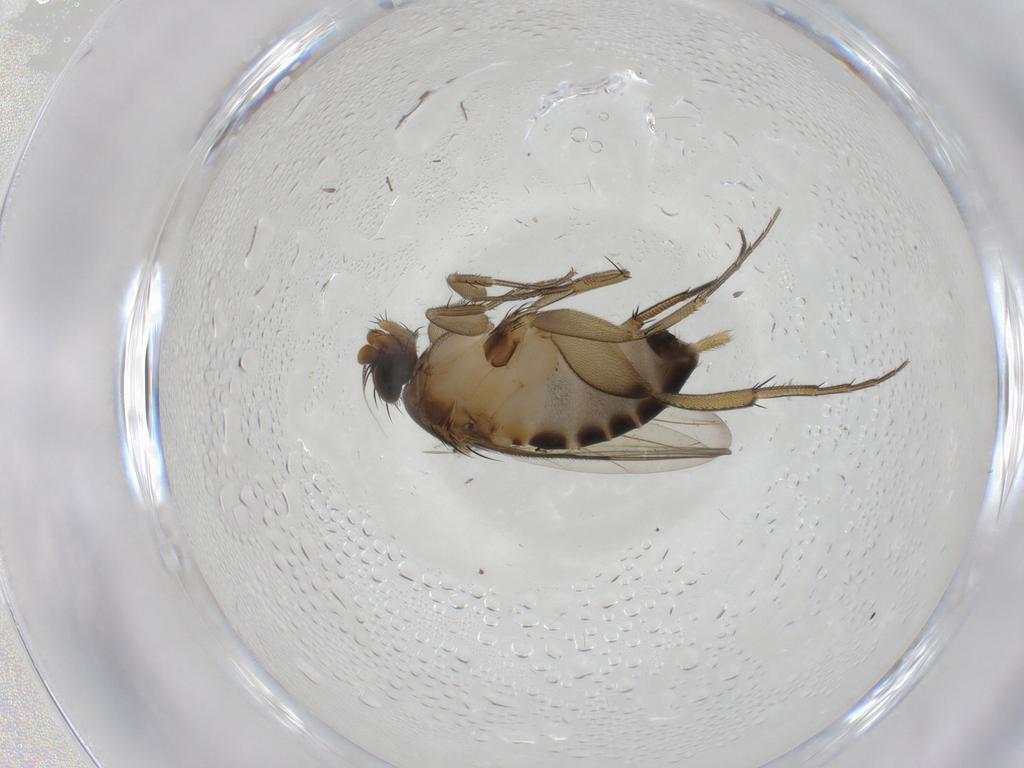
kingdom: Animalia
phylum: Arthropoda
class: Insecta
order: Diptera
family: Phoridae
